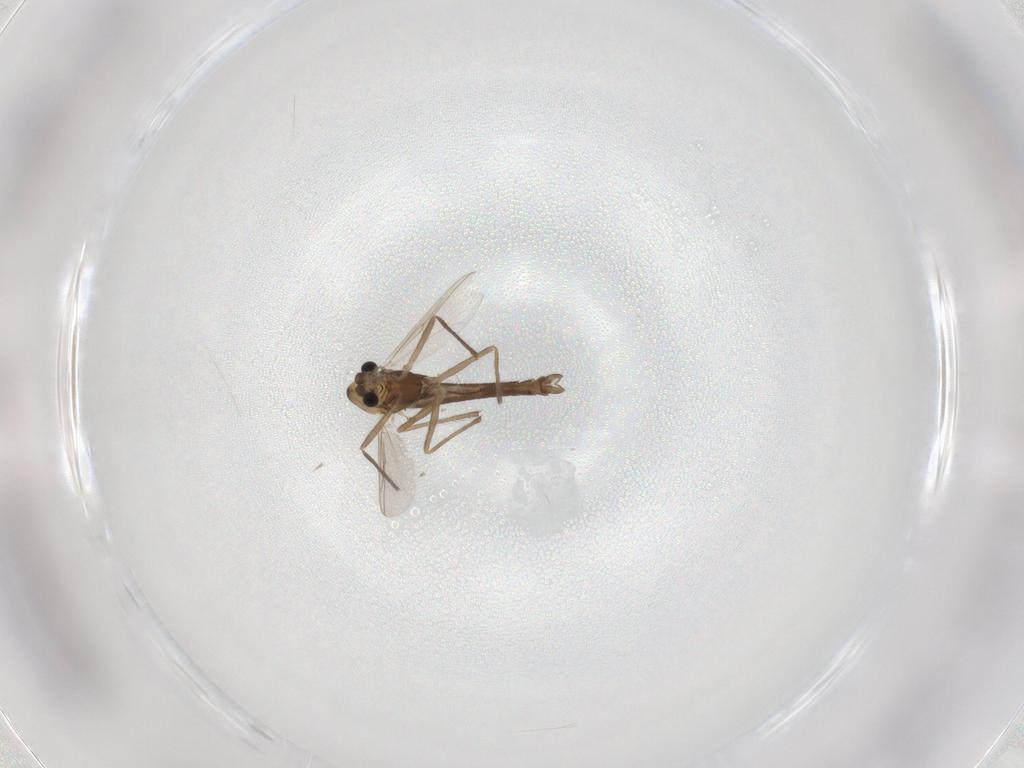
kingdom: Animalia
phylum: Arthropoda
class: Insecta
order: Diptera
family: Chironomidae
